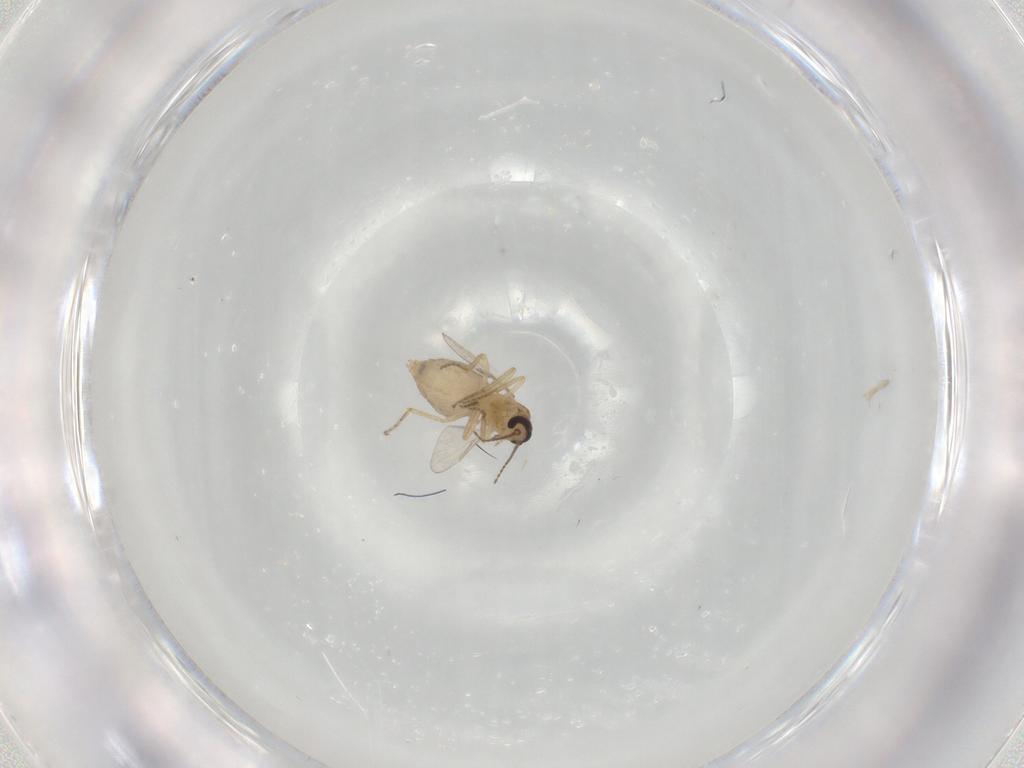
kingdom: Animalia
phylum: Arthropoda
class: Insecta
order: Diptera
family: Ceratopogonidae
